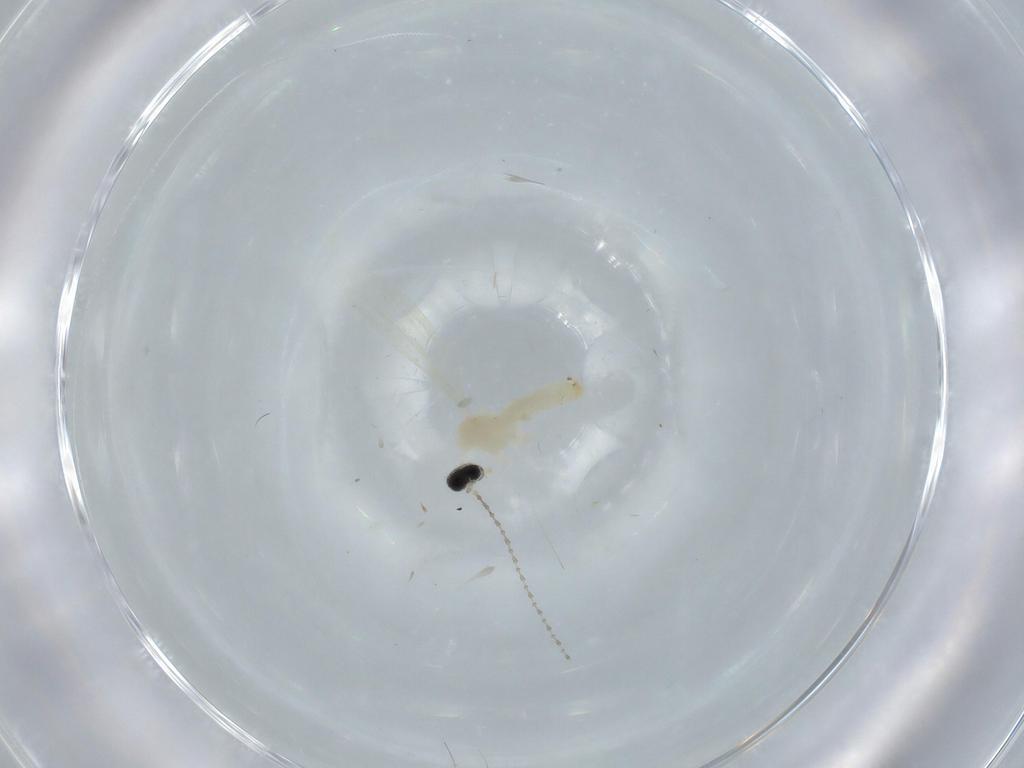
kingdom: Animalia
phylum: Arthropoda
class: Insecta
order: Diptera
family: Cecidomyiidae
